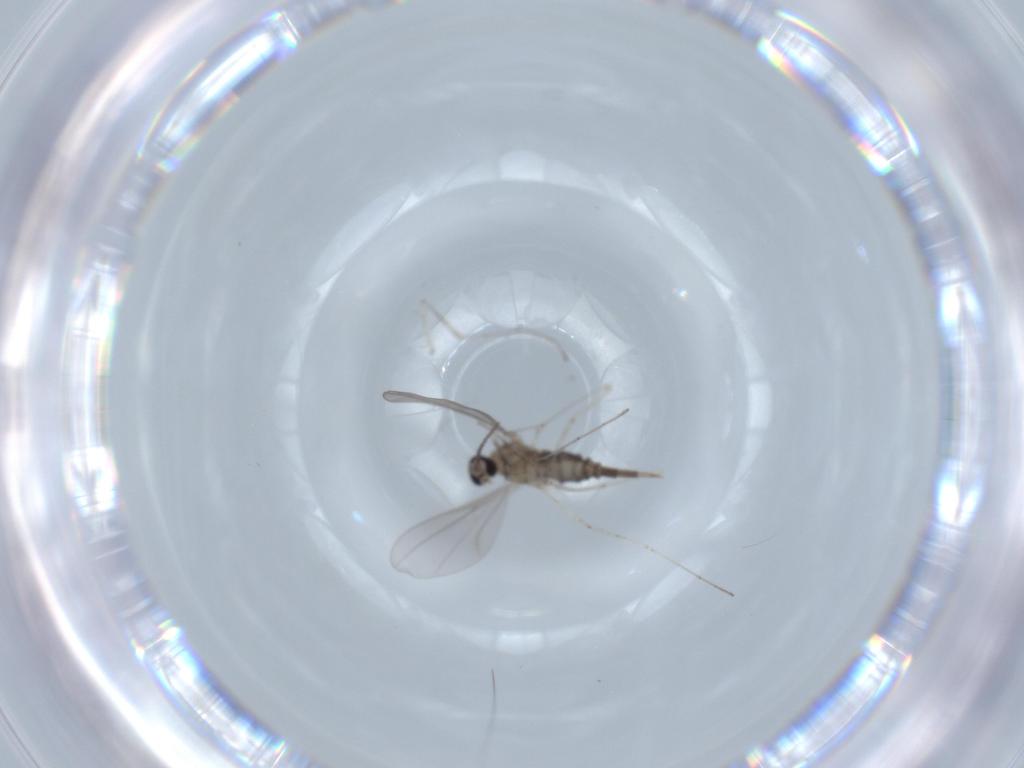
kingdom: Animalia
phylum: Arthropoda
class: Insecta
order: Diptera
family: Cecidomyiidae
